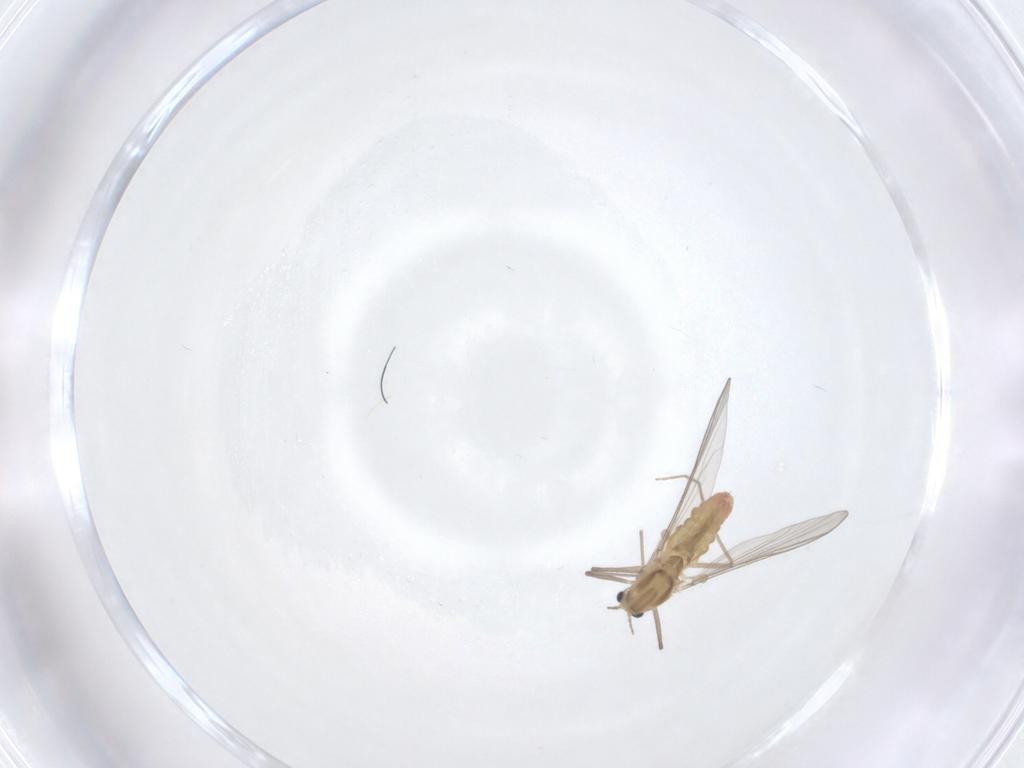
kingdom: Animalia
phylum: Arthropoda
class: Insecta
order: Diptera
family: Chironomidae
